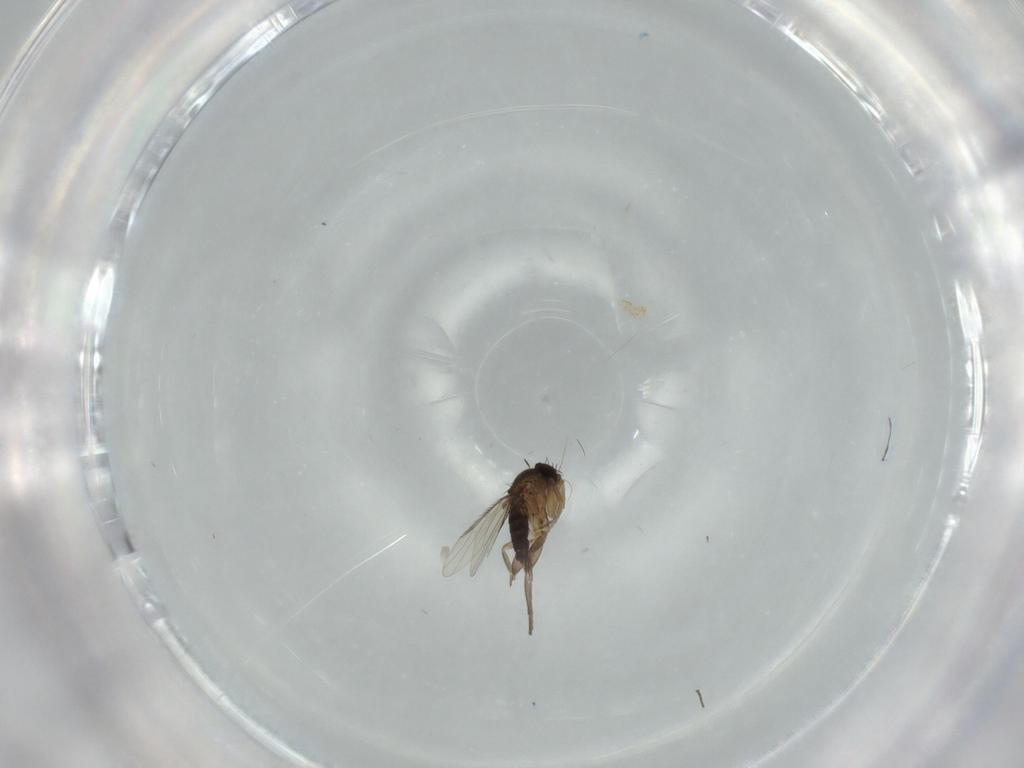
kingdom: Animalia
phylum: Arthropoda
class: Insecta
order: Diptera
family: Phoridae
